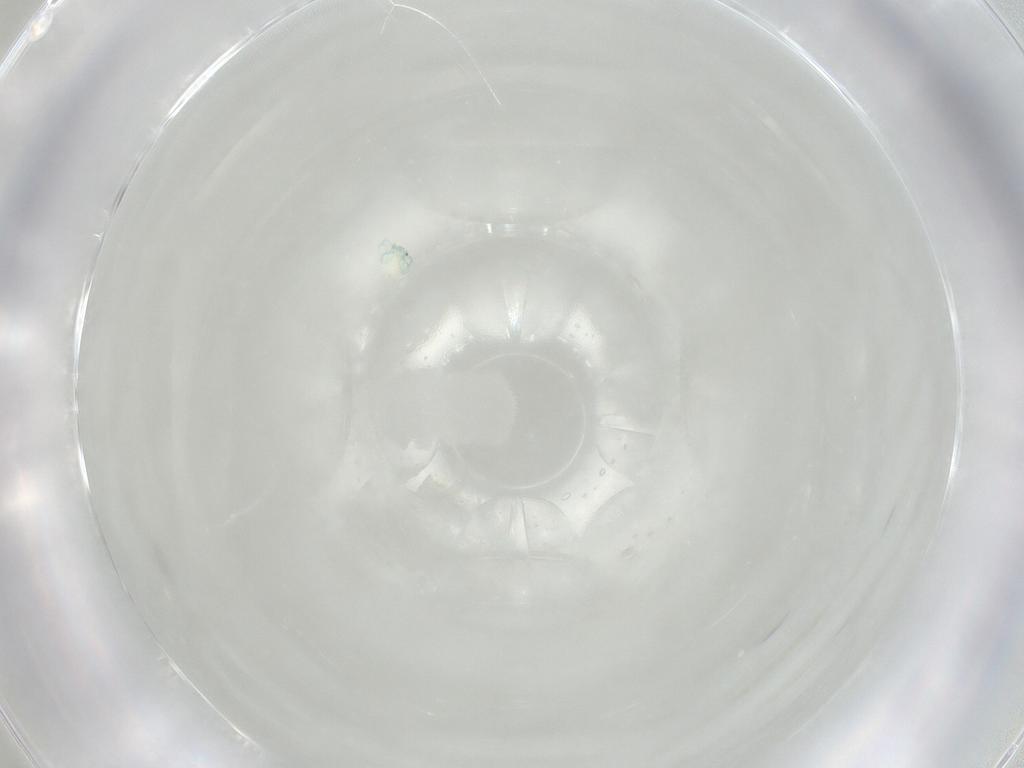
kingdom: Animalia
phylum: Arthropoda
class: Arachnida
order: Trombidiformes
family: Arrenuridae
